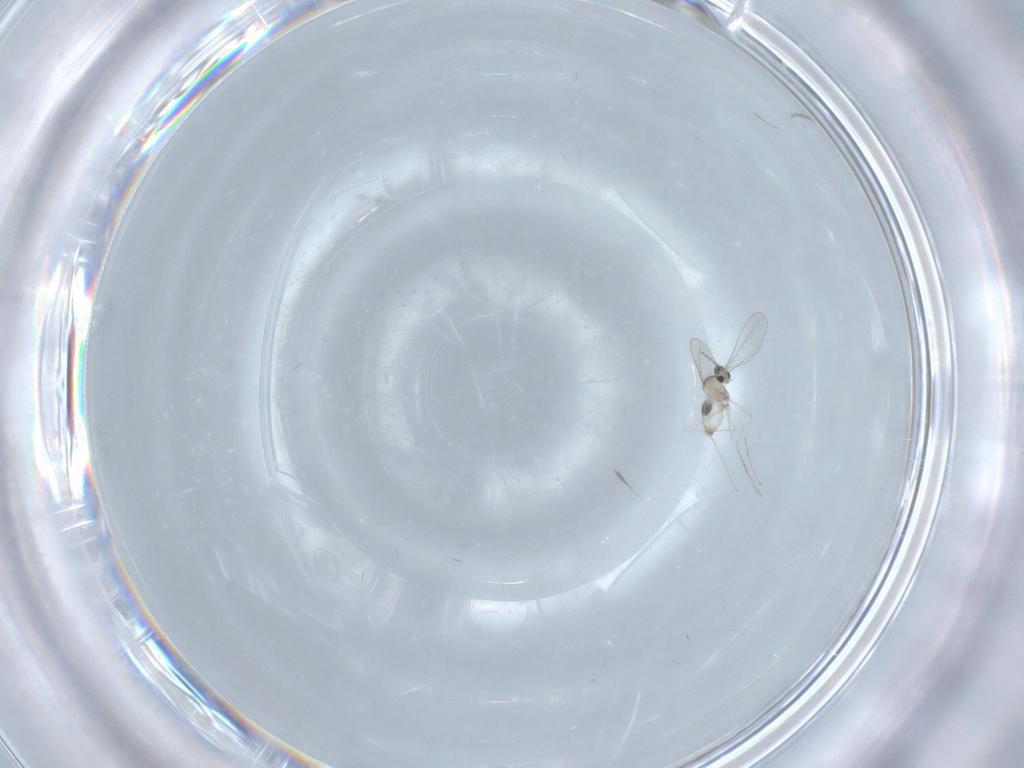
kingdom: Animalia
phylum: Arthropoda
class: Insecta
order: Diptera
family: Cecidomyiidae
